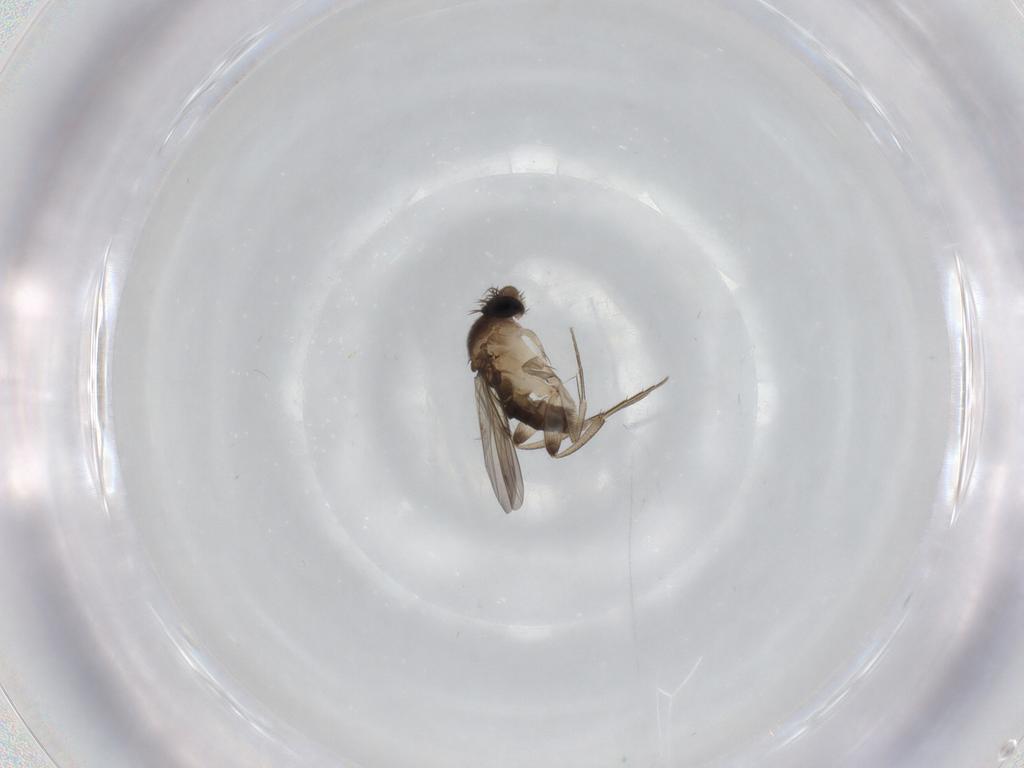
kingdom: Animalia
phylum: Arthropoda
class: Insecta
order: Diptera
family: Phoridae
